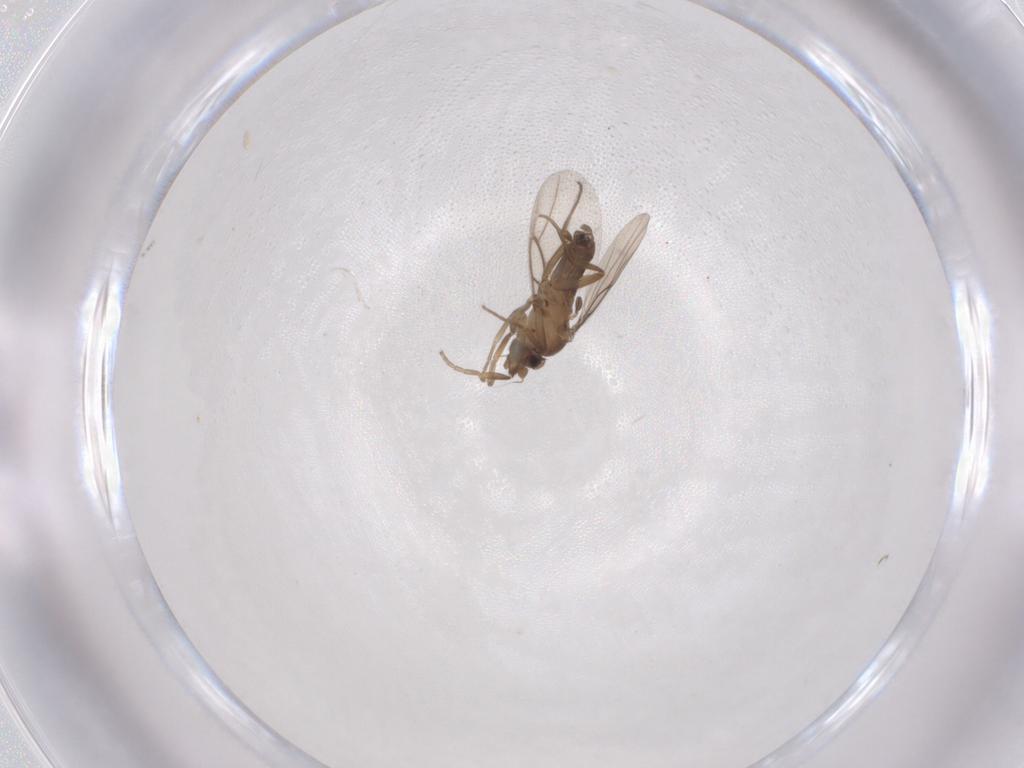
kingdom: Animalia
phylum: Arthropoda
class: Insecta
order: Diptera
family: Phoridae
